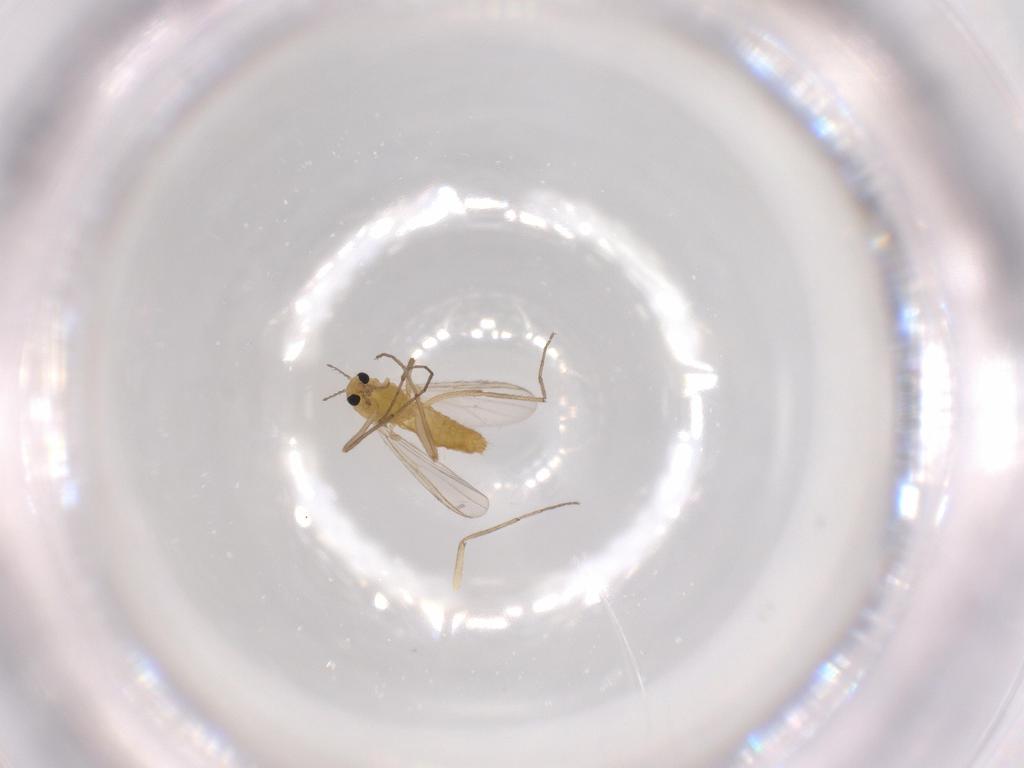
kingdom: Animalia
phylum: Arthropoda
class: Insecta
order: Diptera
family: Chironomidae
